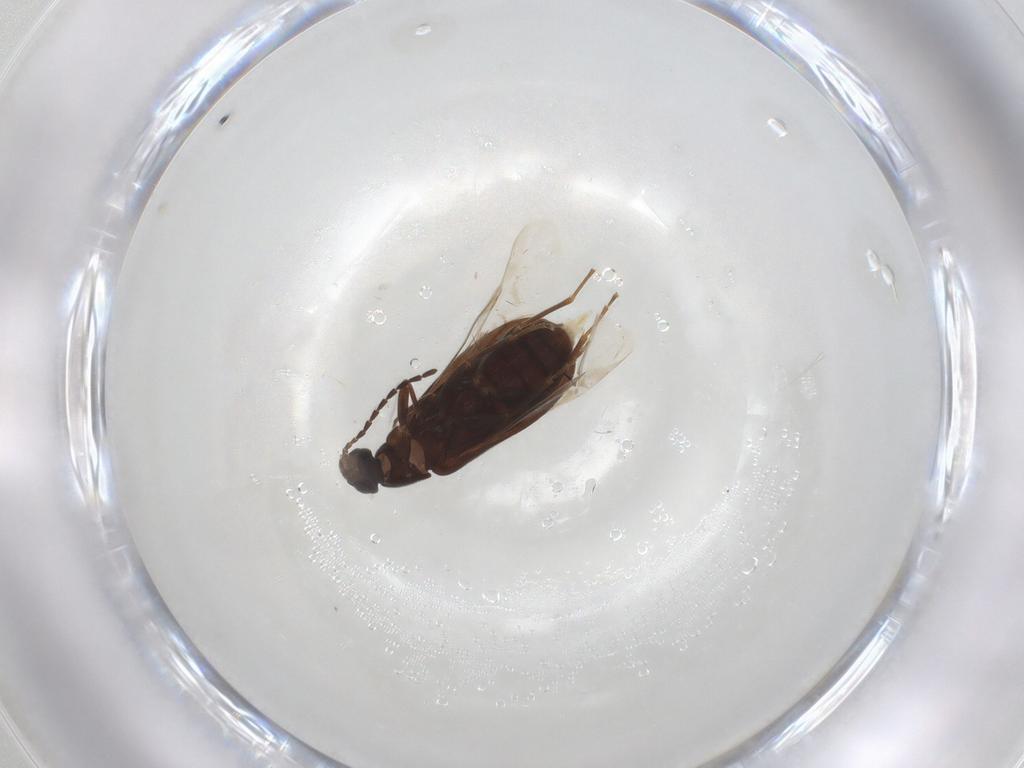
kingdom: Animalia
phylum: Arthropoda
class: Insecta
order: Coleoptera
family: Scraptiidae
